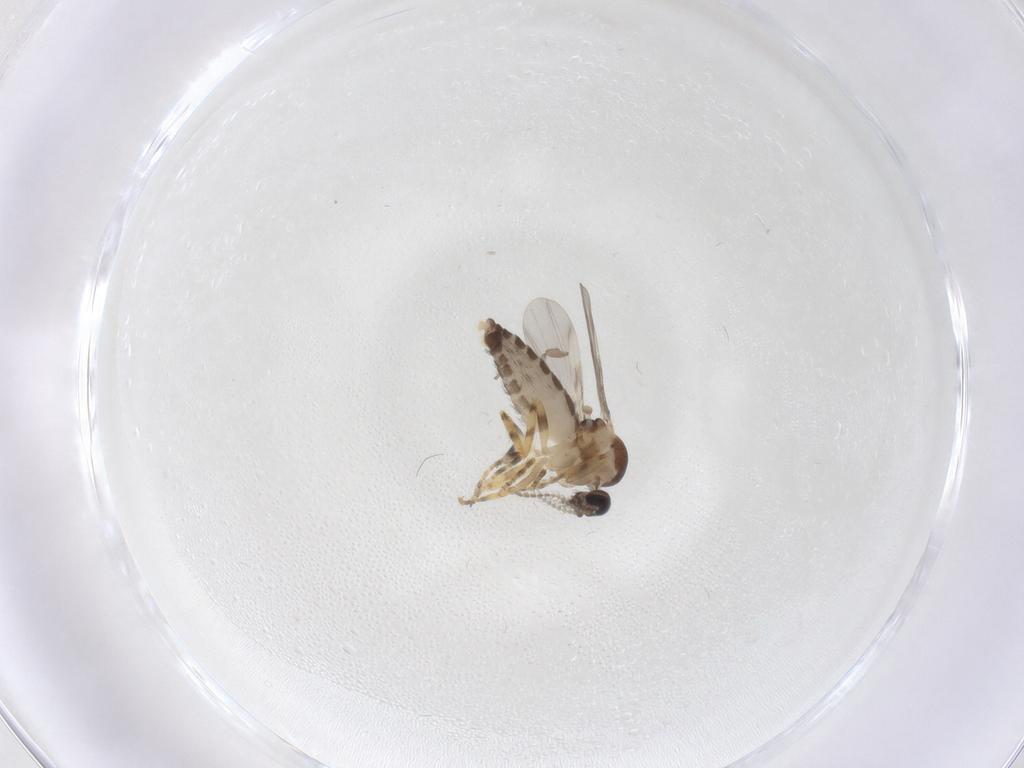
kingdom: Animalia
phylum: Arthropoda
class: Insecta
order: Diptera
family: Ceratopogonidae
